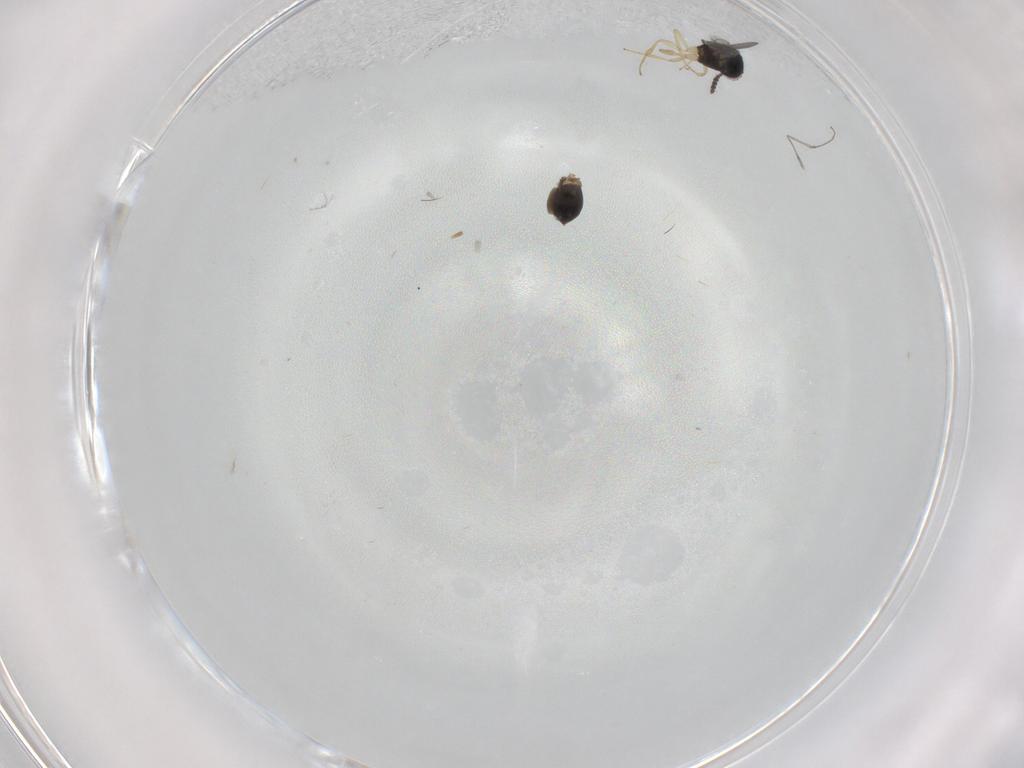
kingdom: Animalia
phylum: Arthropoda
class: Insecta
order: Hymenoptera
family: Scelionidae
